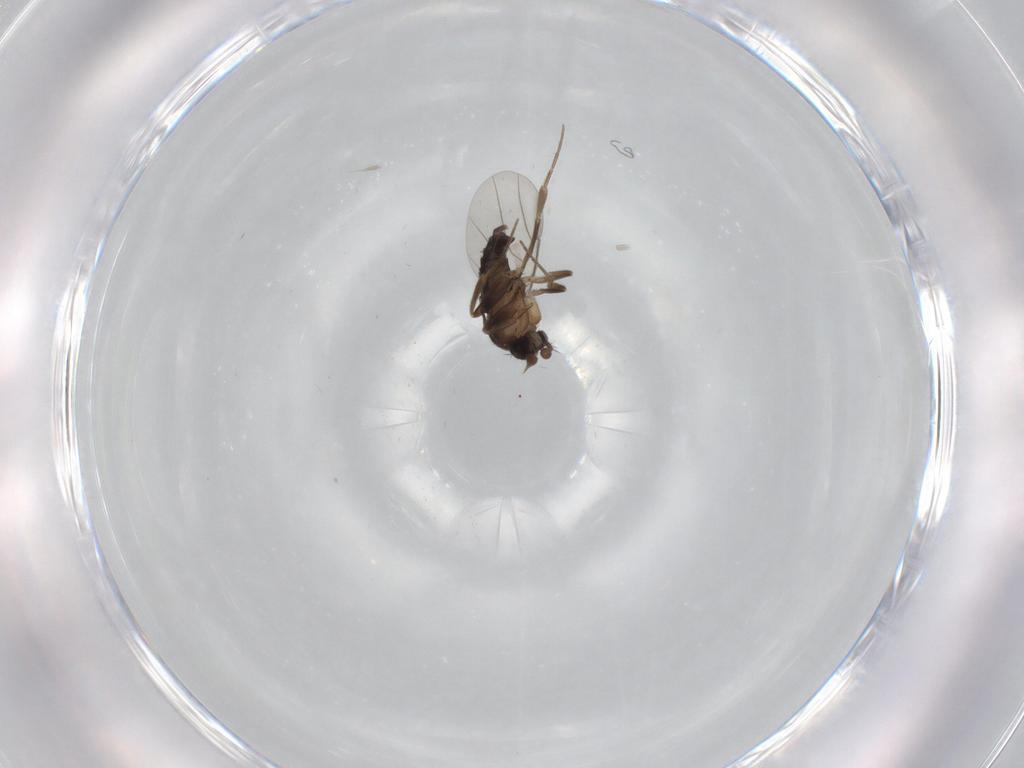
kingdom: Animalia
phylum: Arthropoda
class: Insecta
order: Diptera
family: Phoridae
